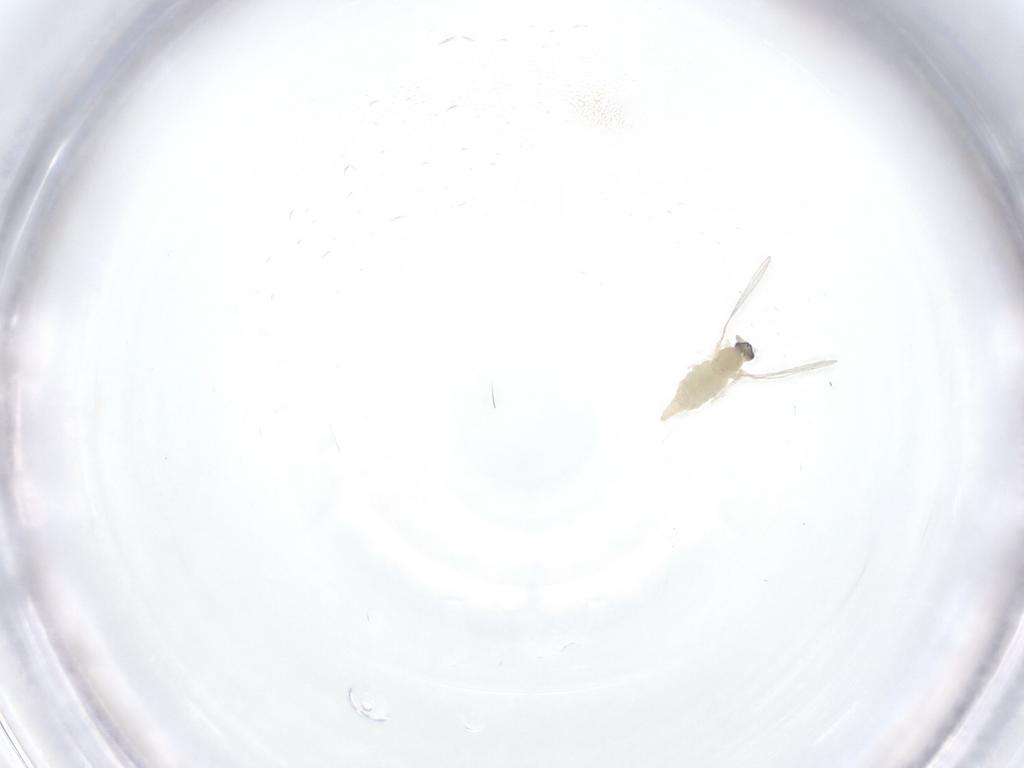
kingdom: Animalia
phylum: Arthropoda
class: Insecta
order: Diptera
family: Cecidomyiidae
